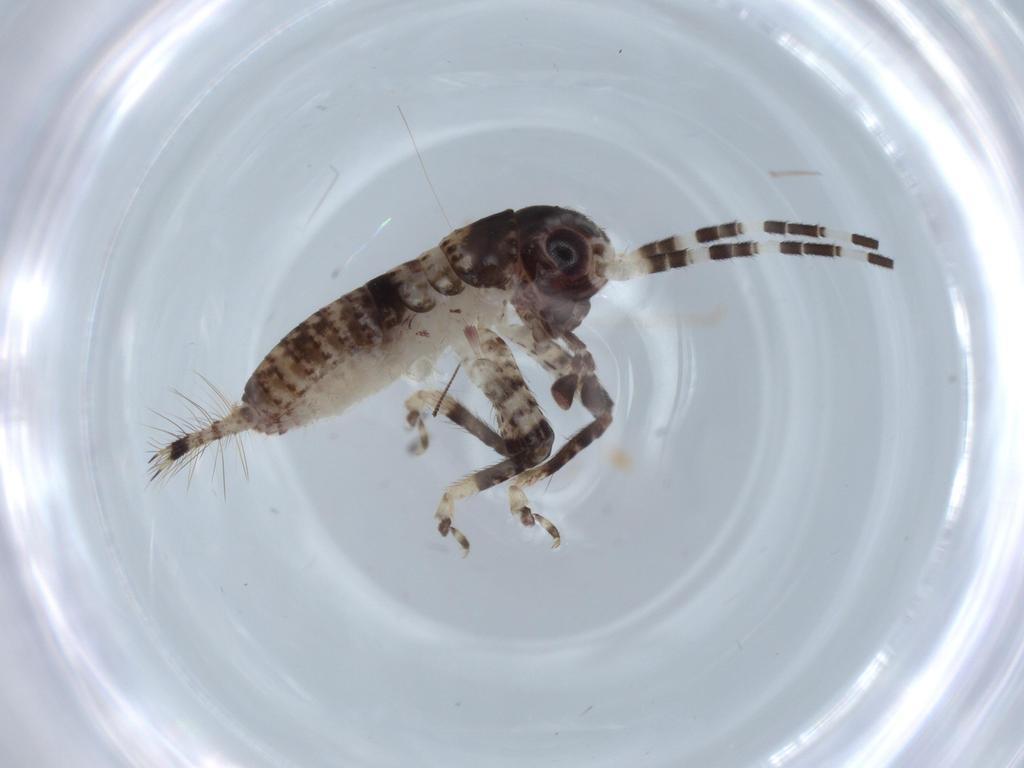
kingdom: Animalia
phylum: Arthropoda
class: Insecta
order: Orthoptera
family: Gryllidae
